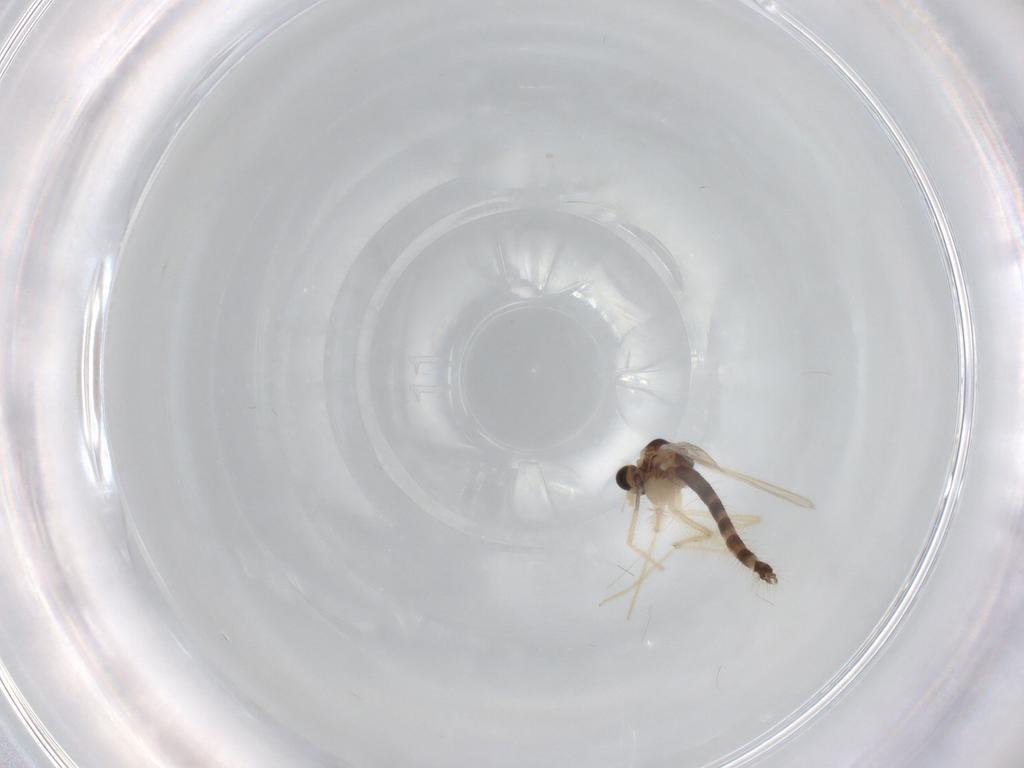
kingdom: Animalia
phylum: Arthropoda
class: Insecta
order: Diptera
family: Chironomidae
